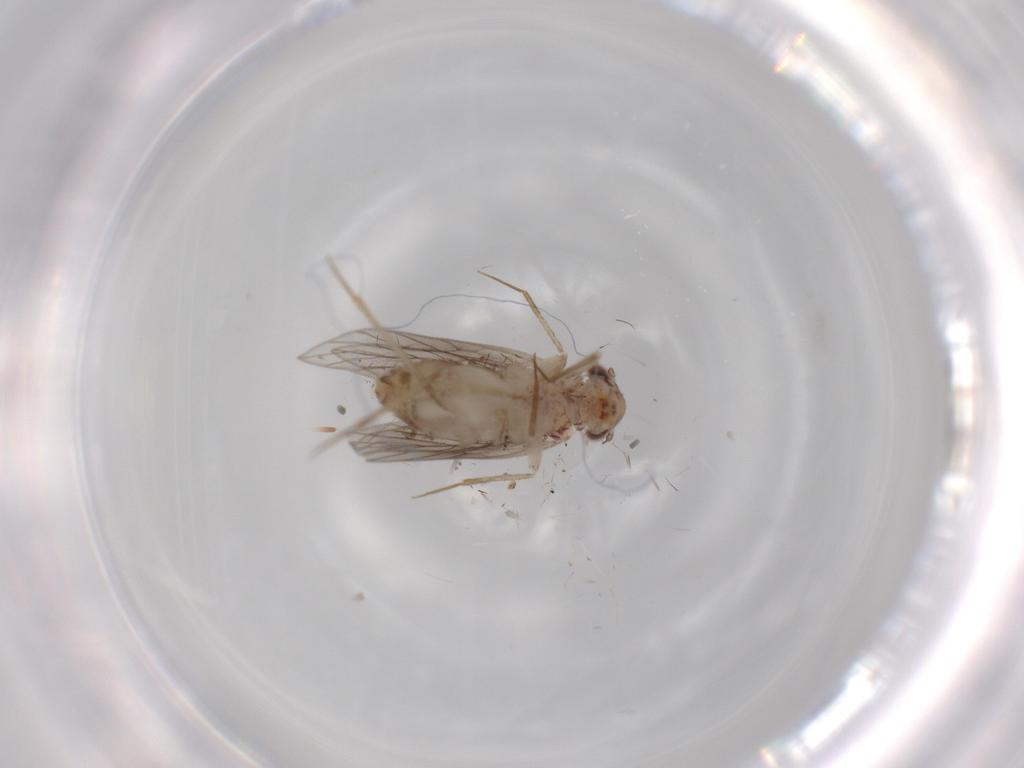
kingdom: Animalia
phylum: Arthropoda
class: Insecta
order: Psocodea
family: Lepidopsocidae
